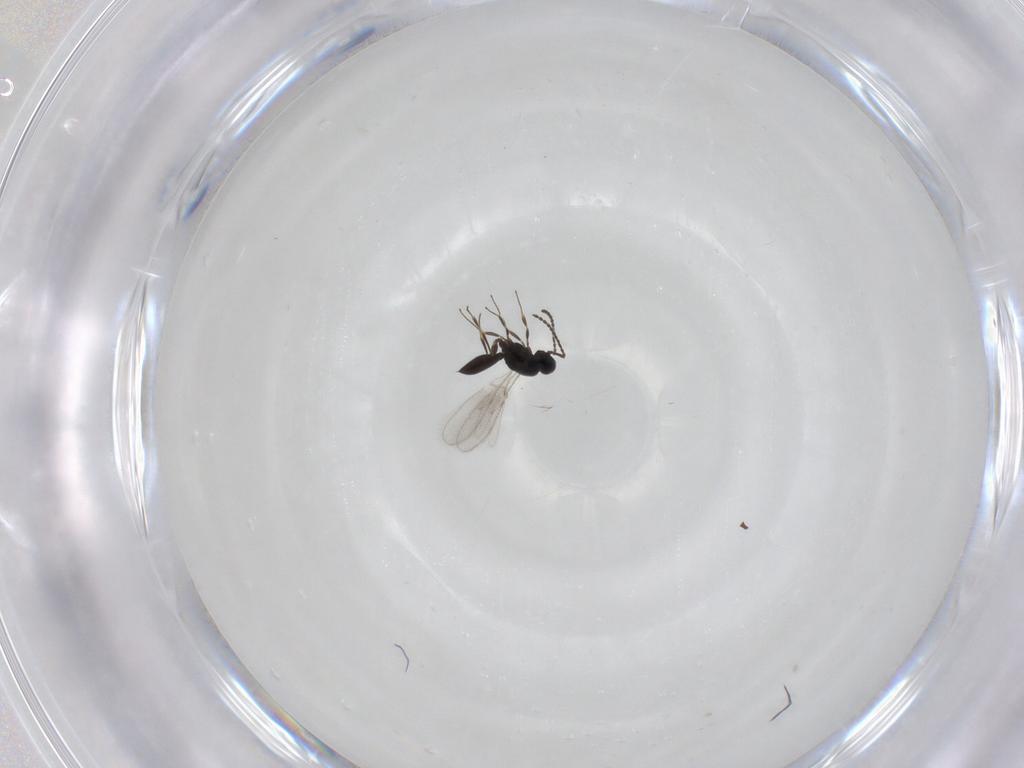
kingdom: Animalia
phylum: Arthropoda
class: Insecta
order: Hymenoptera
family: Scelionidae
